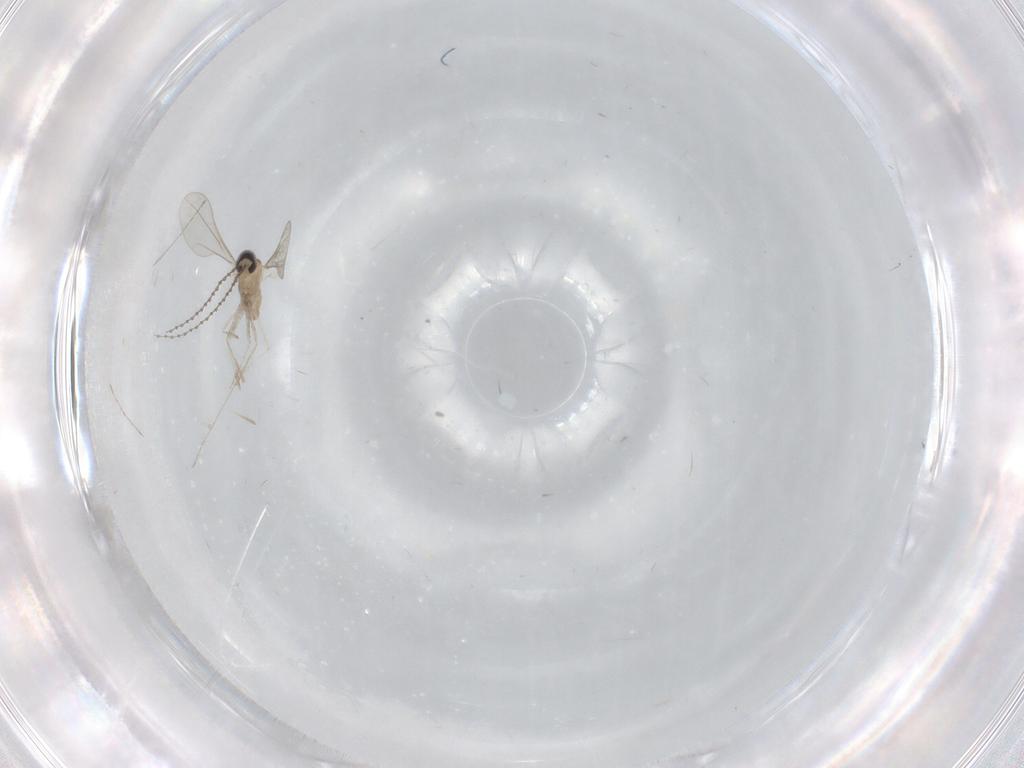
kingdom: Animalia
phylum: Arthropoda
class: Insecta
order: Diptera
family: Cecidomyiidae
